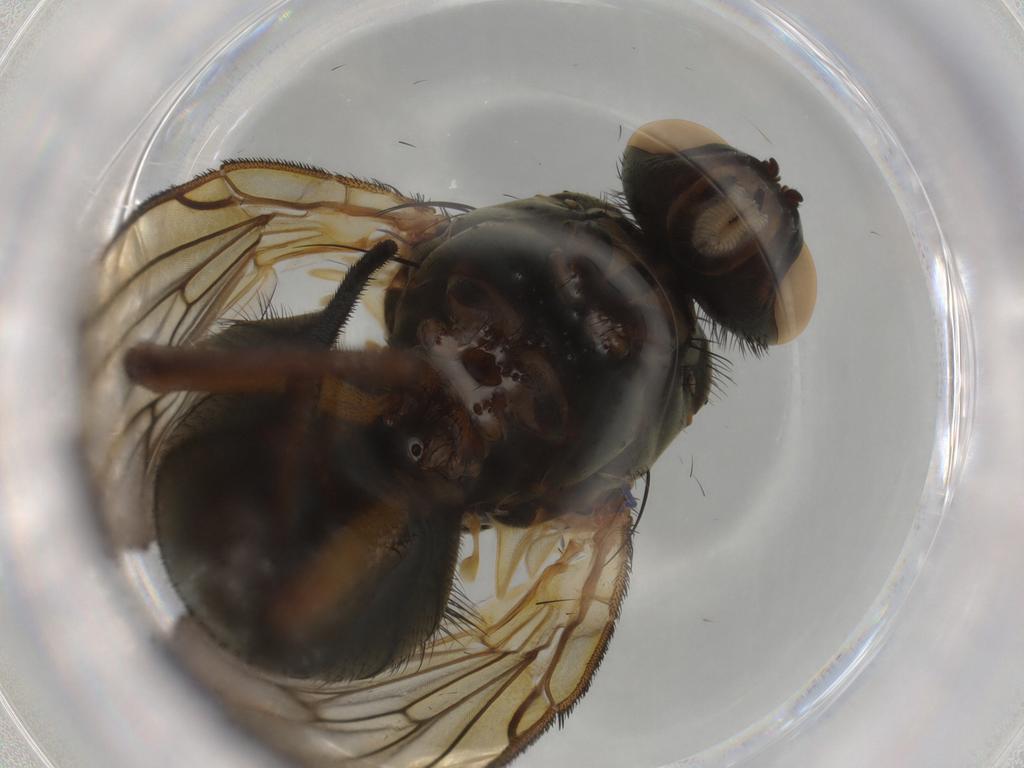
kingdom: Animalia
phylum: Arthropoda
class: Insecta
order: Diptera
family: Muscidae
